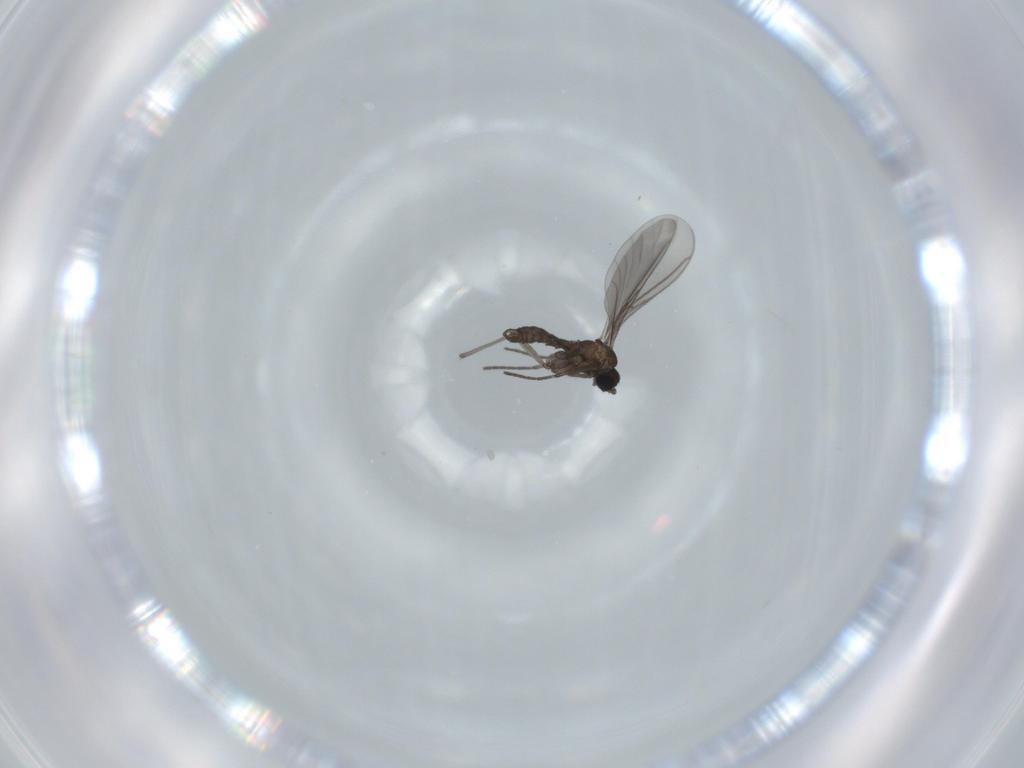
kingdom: Animalia
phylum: Arthropoda
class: Insecta
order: Diptera
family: Sciaridae
